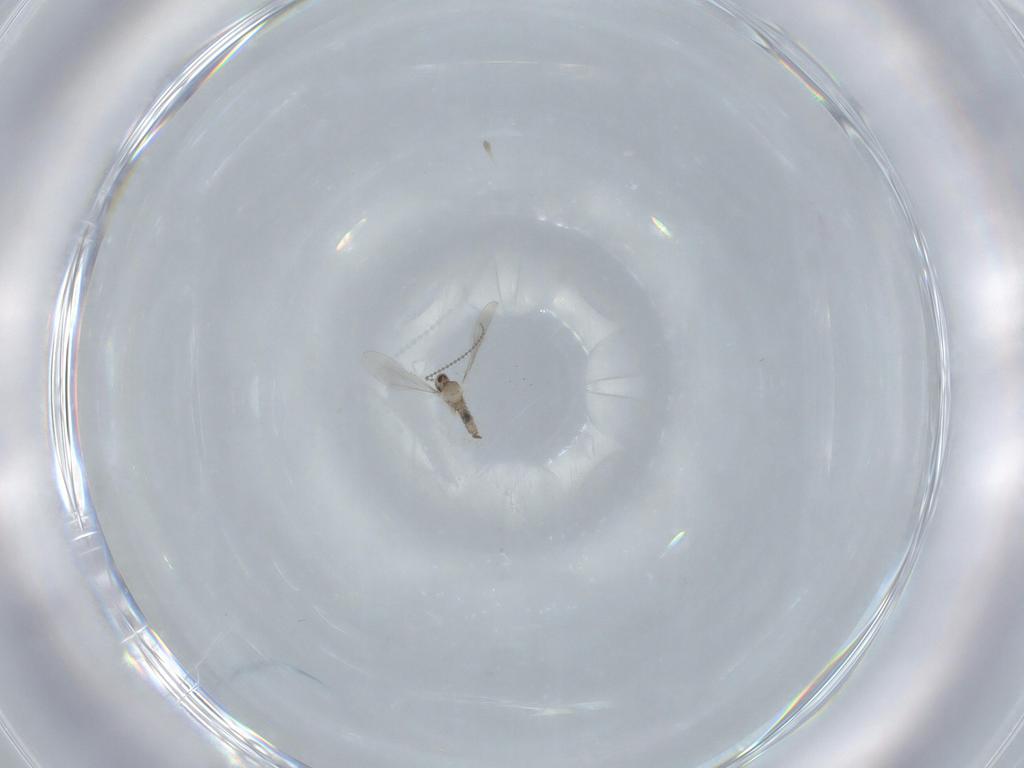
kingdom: Animalia
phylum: Arthropoda
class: Insecta
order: Diptera
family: Cecidomyiidae
